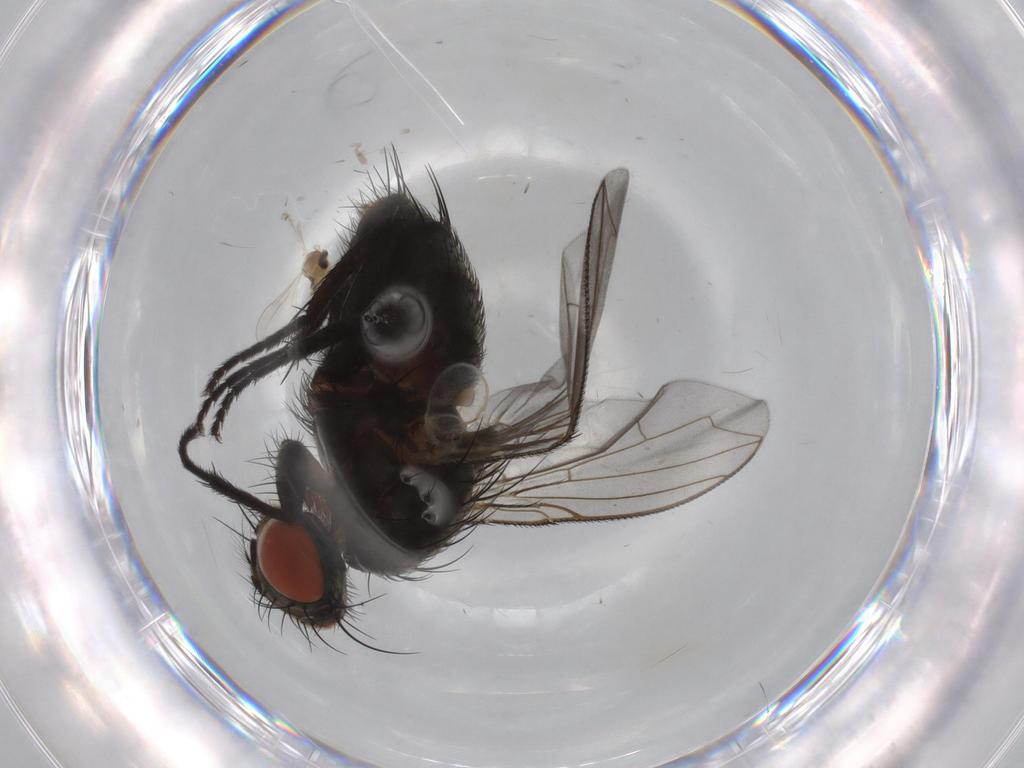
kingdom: Animalia
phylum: Arthropoda
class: Insecta
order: Diptera
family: Sarcophagidae
